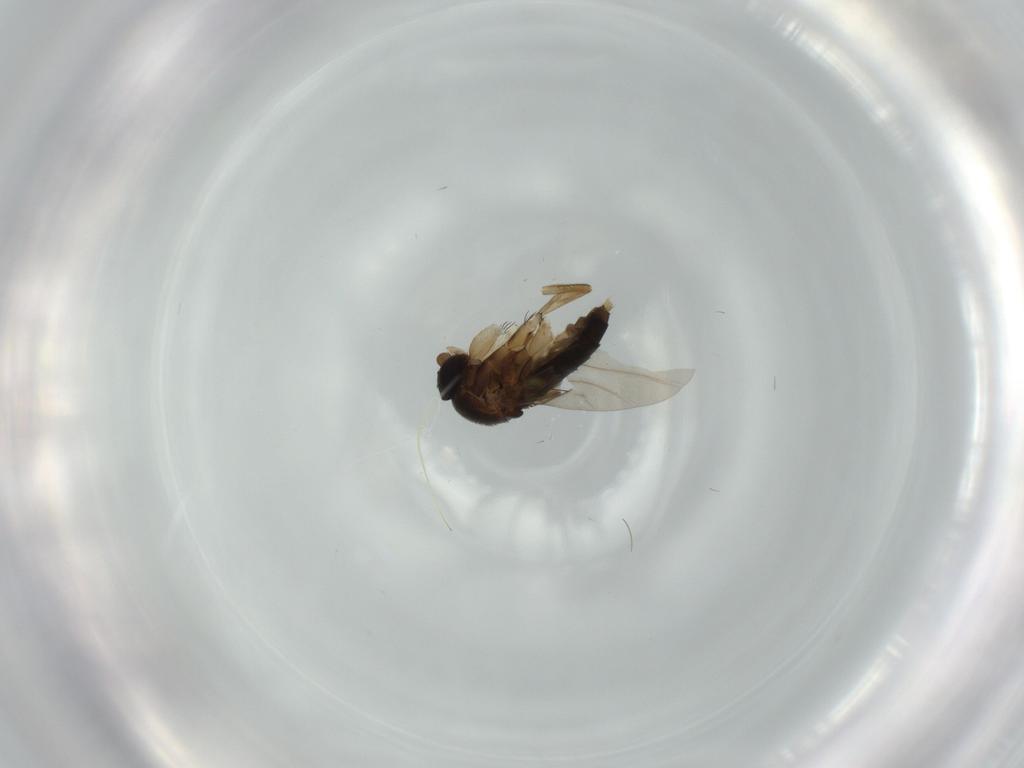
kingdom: Animalia
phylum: Arthropoda
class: Insecta
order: Diptera
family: Phoridae
